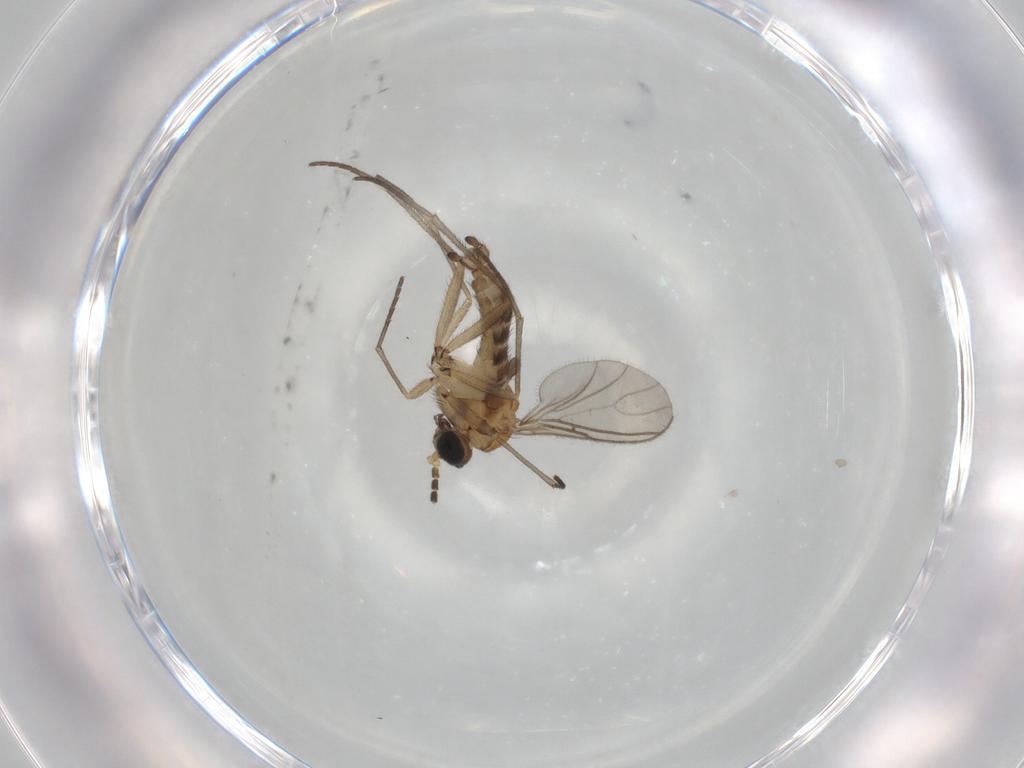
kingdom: Animalia
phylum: Arthropoda
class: Insecta
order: Diptera
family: Sciaridae
